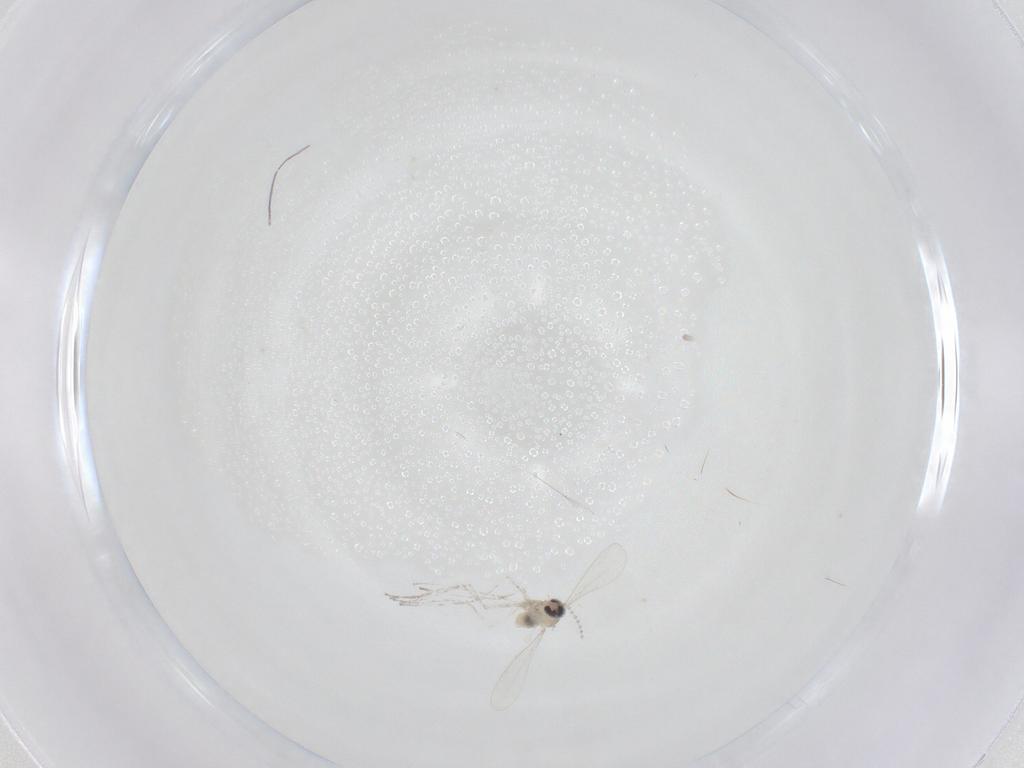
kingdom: Animalia
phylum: Arthropoda
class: Insecta
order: Diptera
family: Cecidomyiidae
